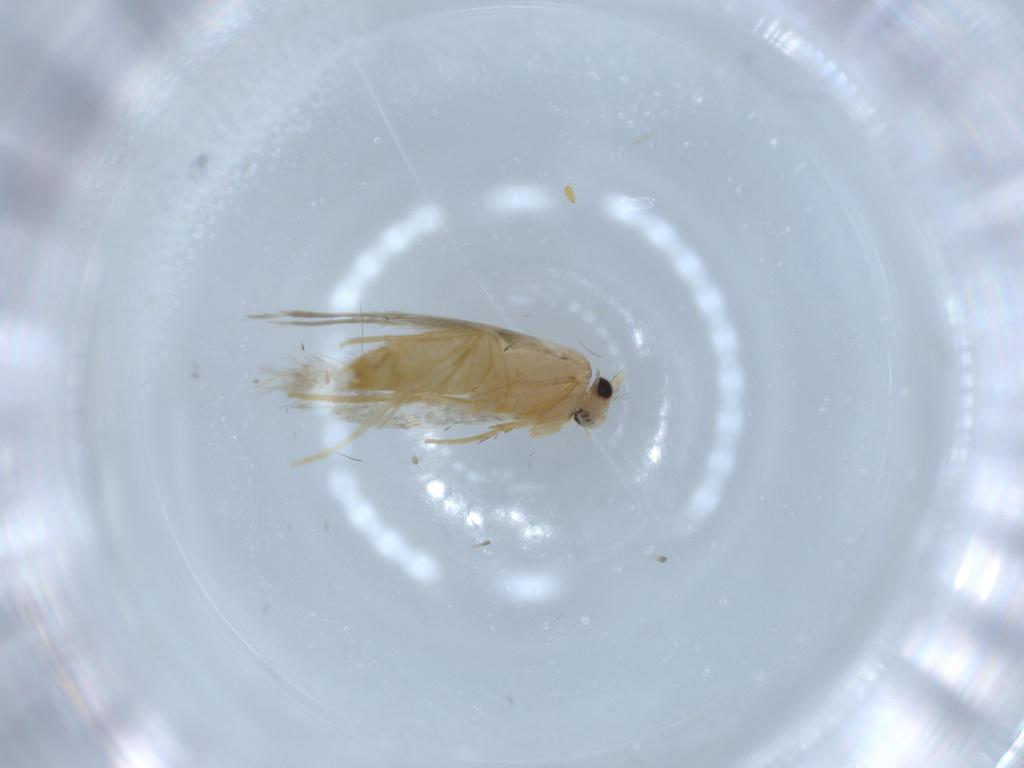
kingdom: Animalia
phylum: Arthropoda
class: Insecta
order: Lepidoptera
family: Nepticulidae
